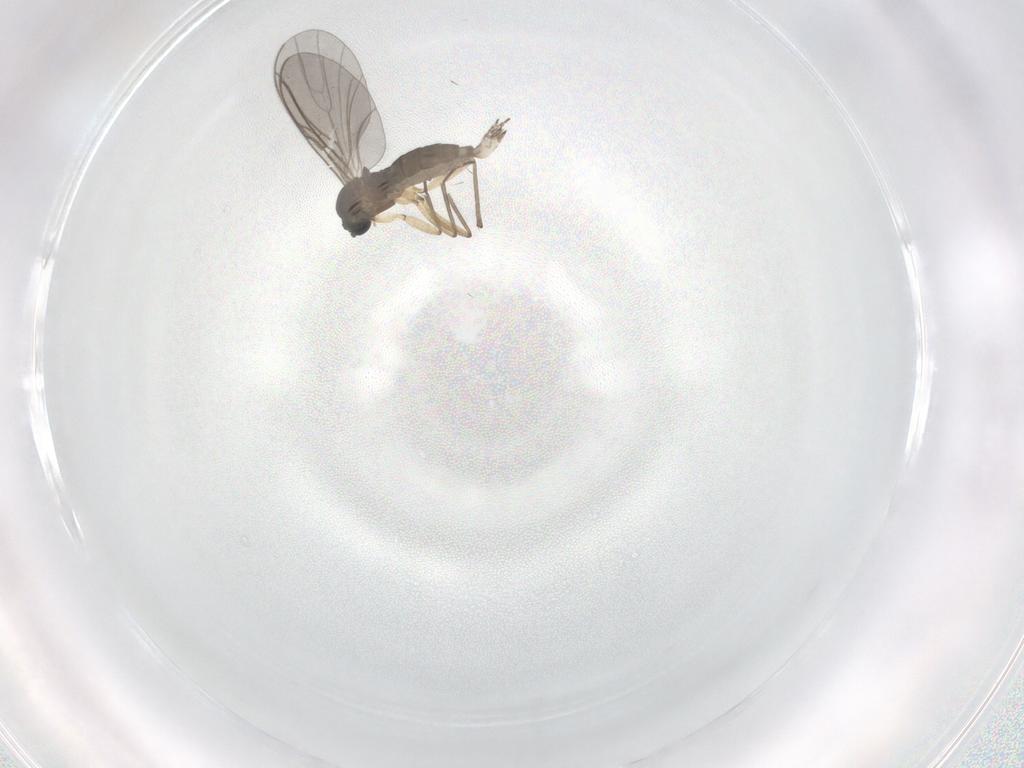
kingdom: Animalia
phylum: Arthropoda
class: Insecta
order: Diptera
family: Sciaridae
